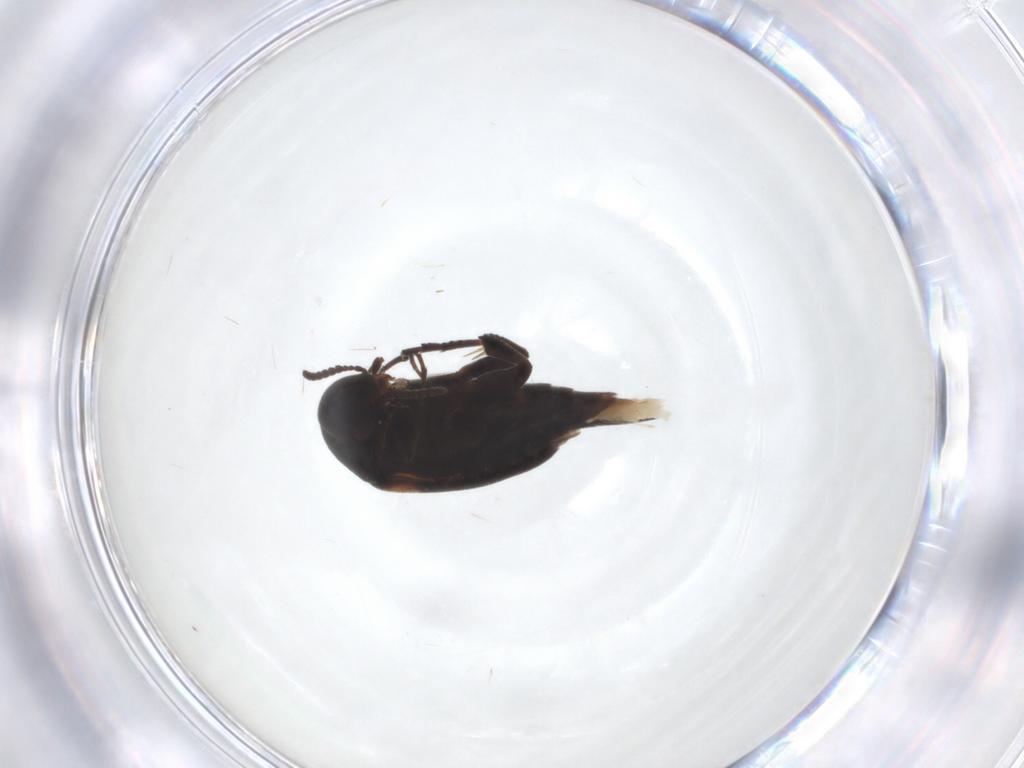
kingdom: Animalia
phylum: Arthropoda
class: Insecta
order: Coleoptera
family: Mordellidae
